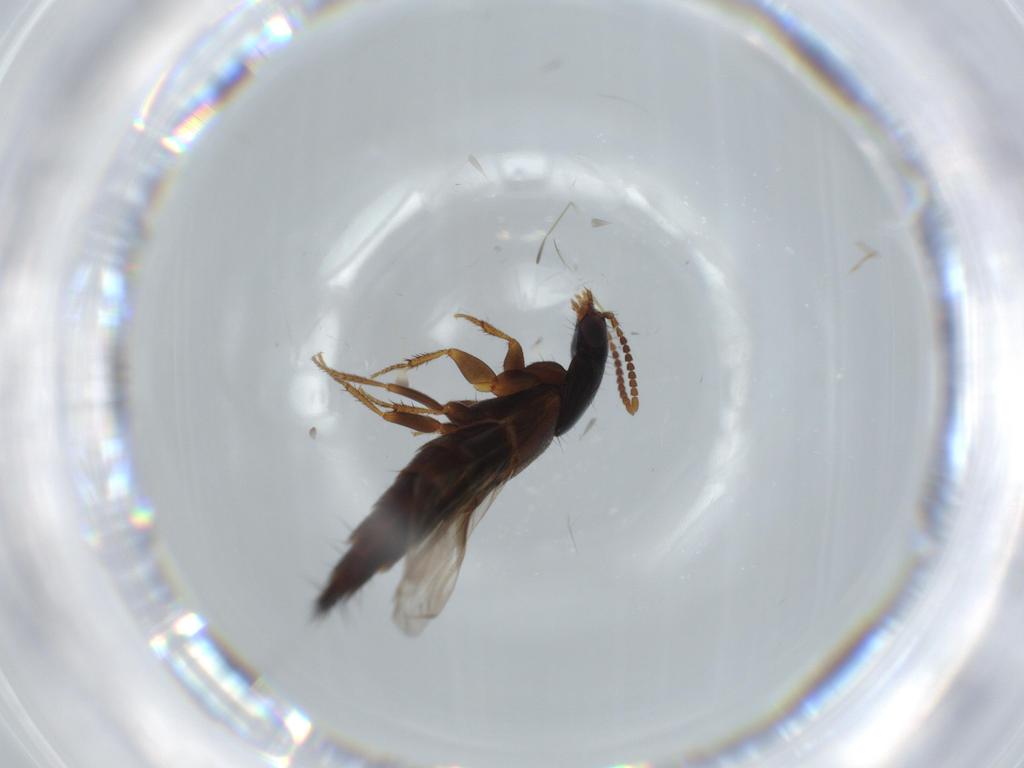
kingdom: Animalia
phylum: Arthropoda
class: Insecta
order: Coleoptera
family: Staphylinidae
